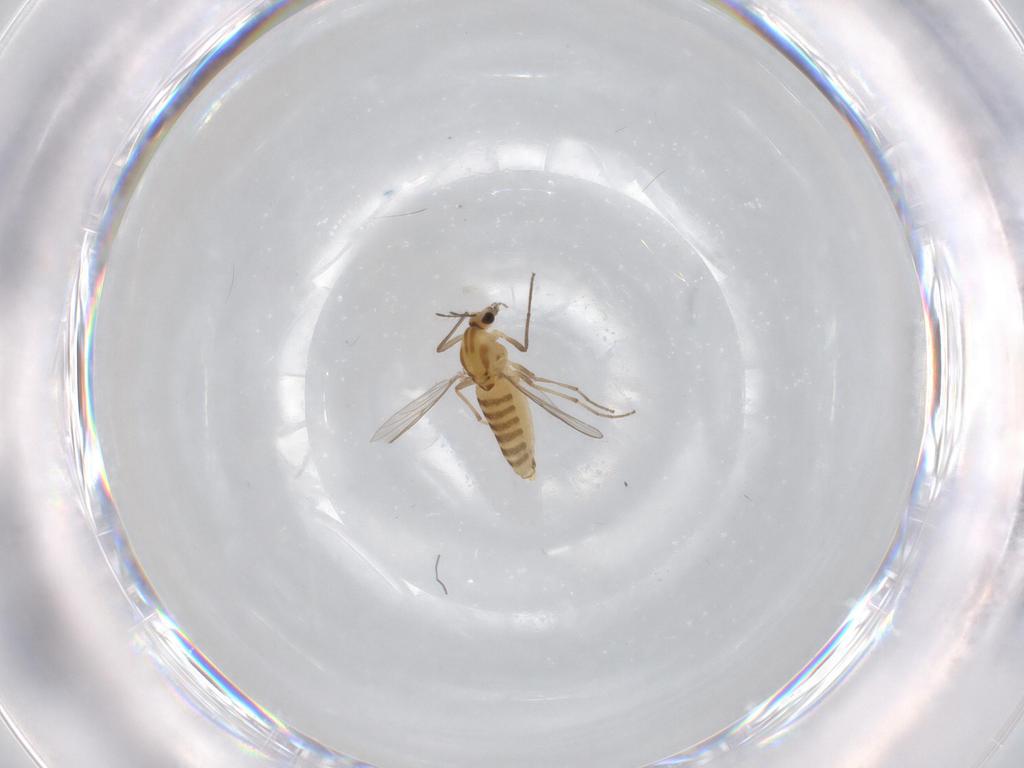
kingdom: Animalia
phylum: Arthropoda
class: Insecta
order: Diptera
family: Chironomidae
